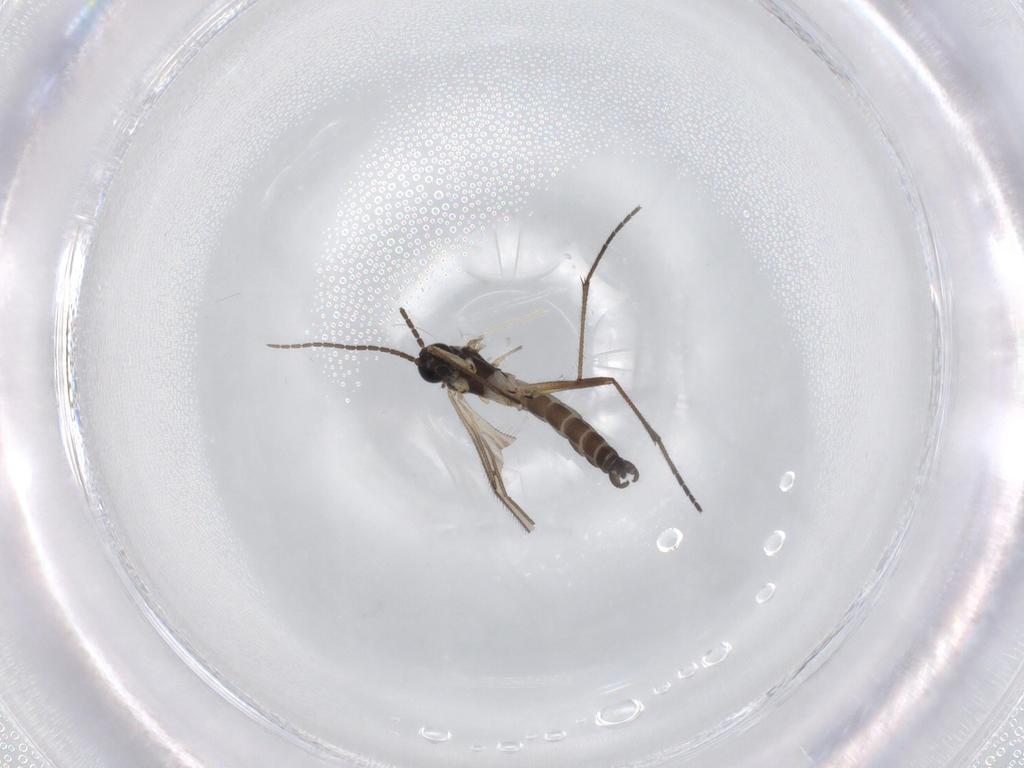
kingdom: Animalia
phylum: Arthropoda
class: Insecta
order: Diptera
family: Sciaridae
